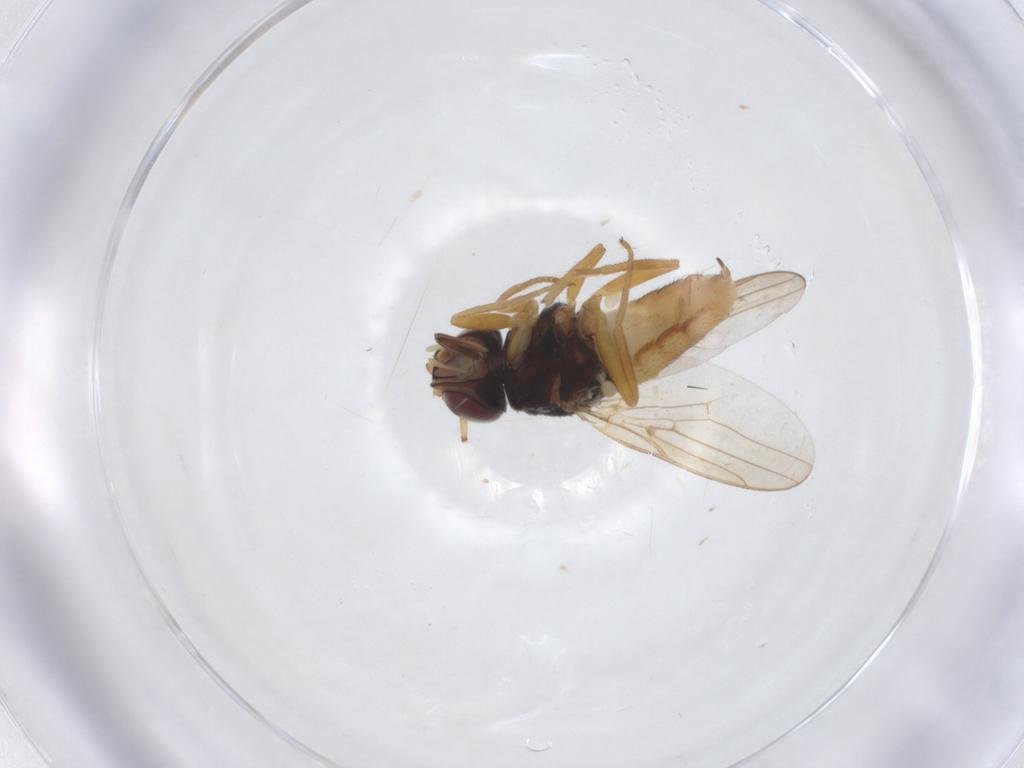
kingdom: Animalia
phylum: Arthropoda
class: Insecta
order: Diptera
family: Chloropidae
